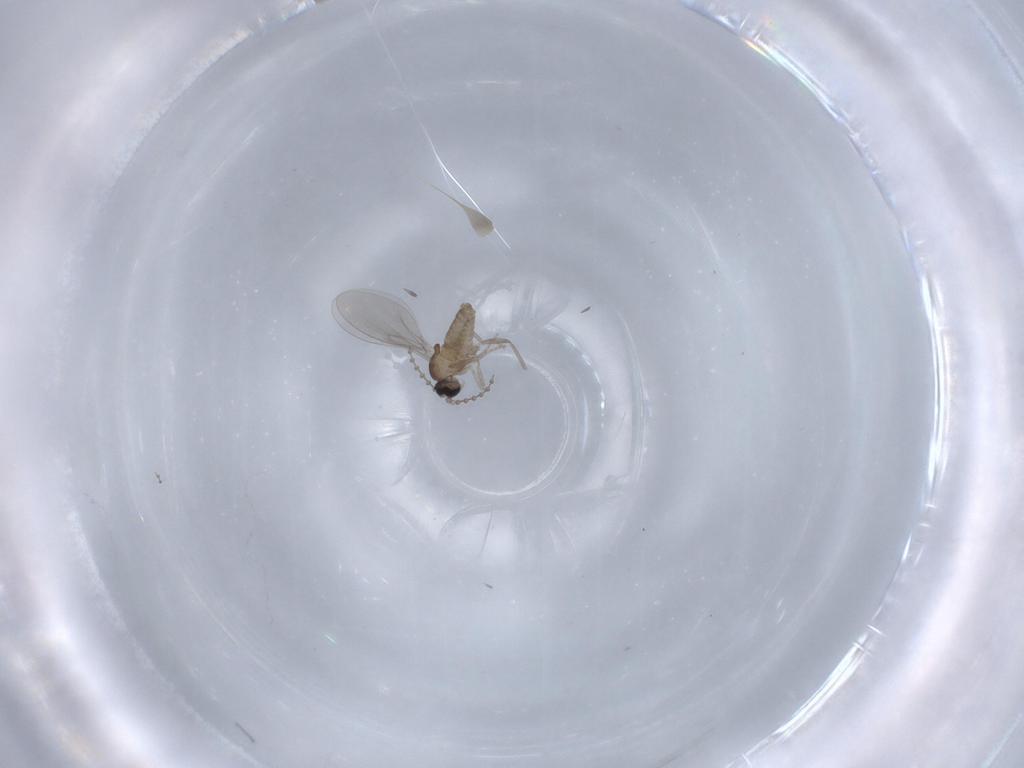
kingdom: Animalia
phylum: Arthropoda
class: Insecta
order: Diptera
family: Cecidomyiidae
